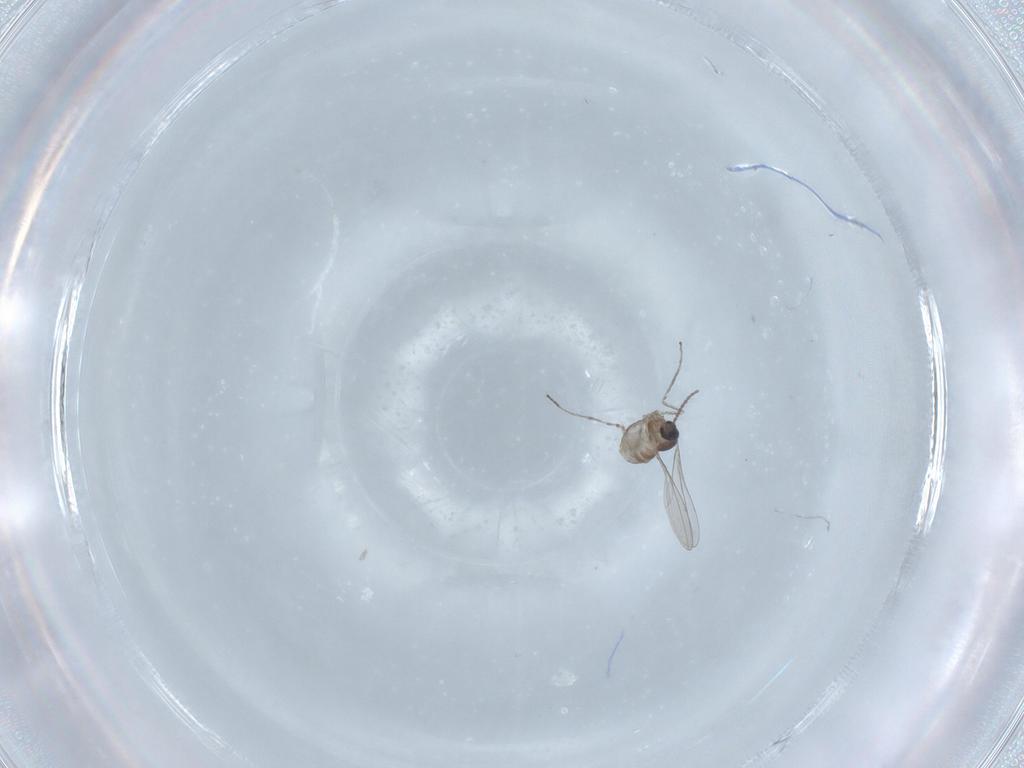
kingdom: Animalia
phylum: Arthropoda
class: Insecta
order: Diptera
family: Cecidomyiidae
